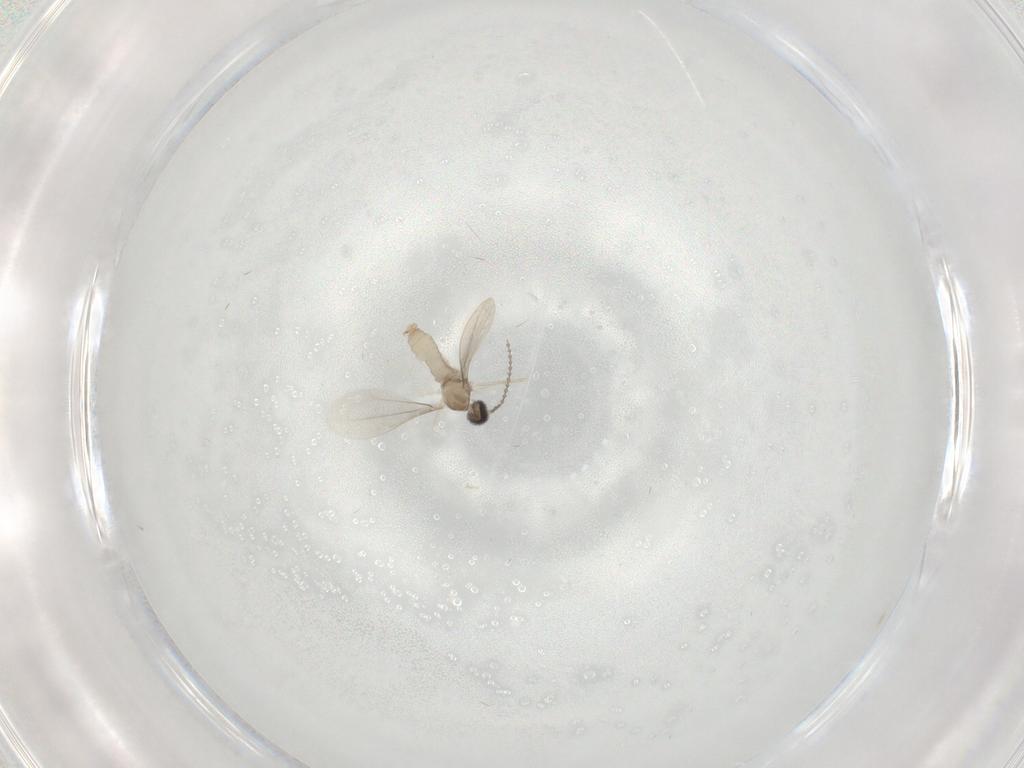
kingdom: Animalia
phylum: Arthropoda
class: Insecta
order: Diptera
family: Cecidomyiidae
